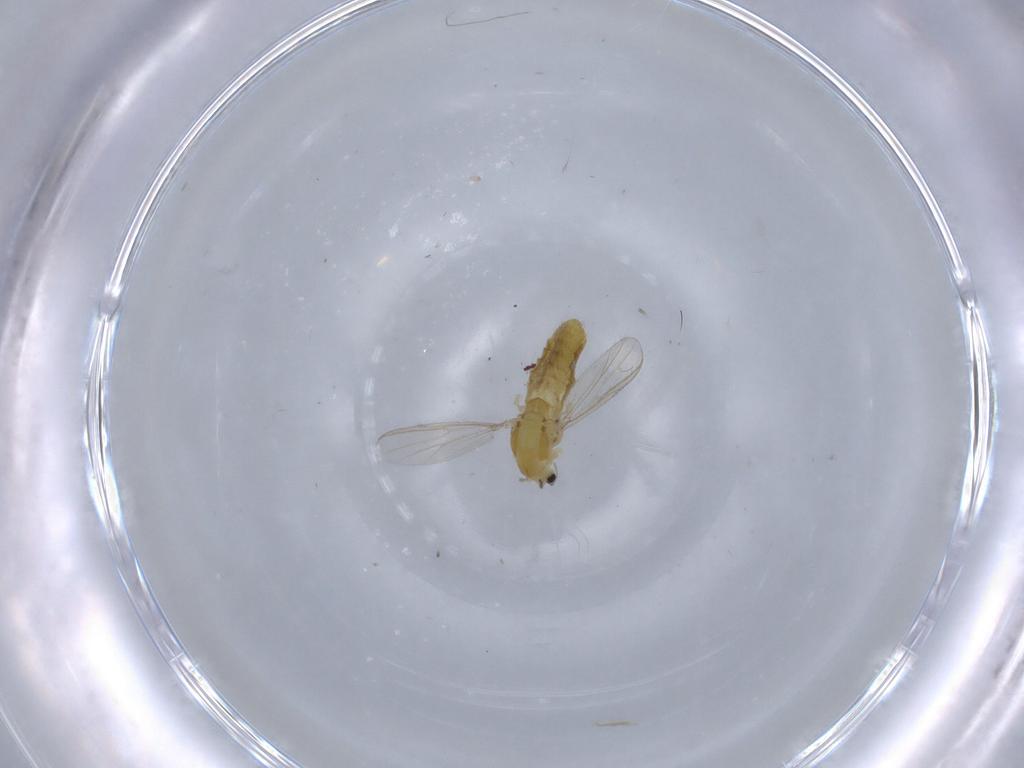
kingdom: Animalia
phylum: Arthropoda
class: Insecta
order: Diptera
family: Chironomidae
